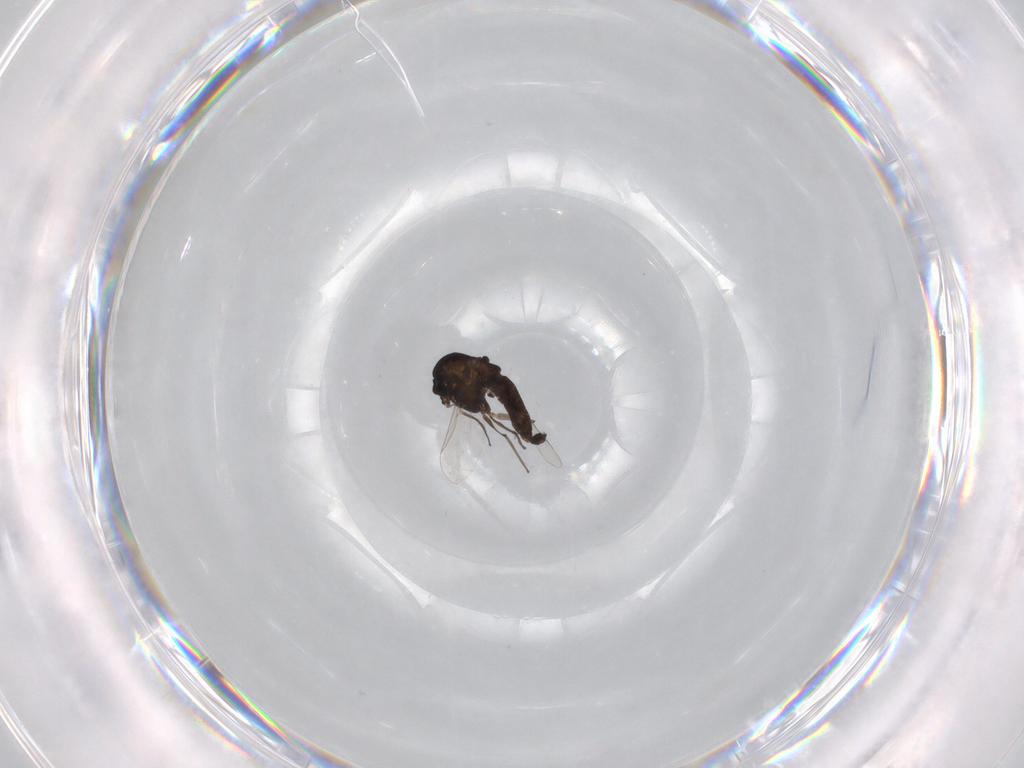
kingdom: Animalia
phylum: Arthropoda
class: Insecta
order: Diptera
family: Chironomidae
